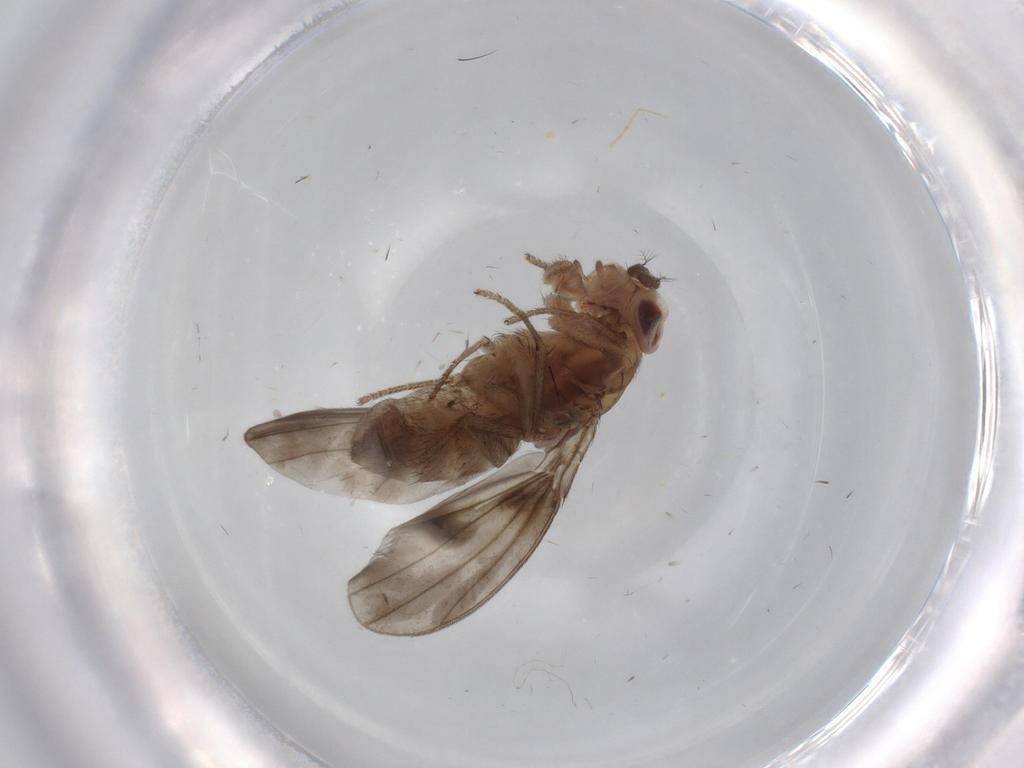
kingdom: Animalia
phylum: Arthropoda
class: Insecta
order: Diptera
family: Drosophilidae
